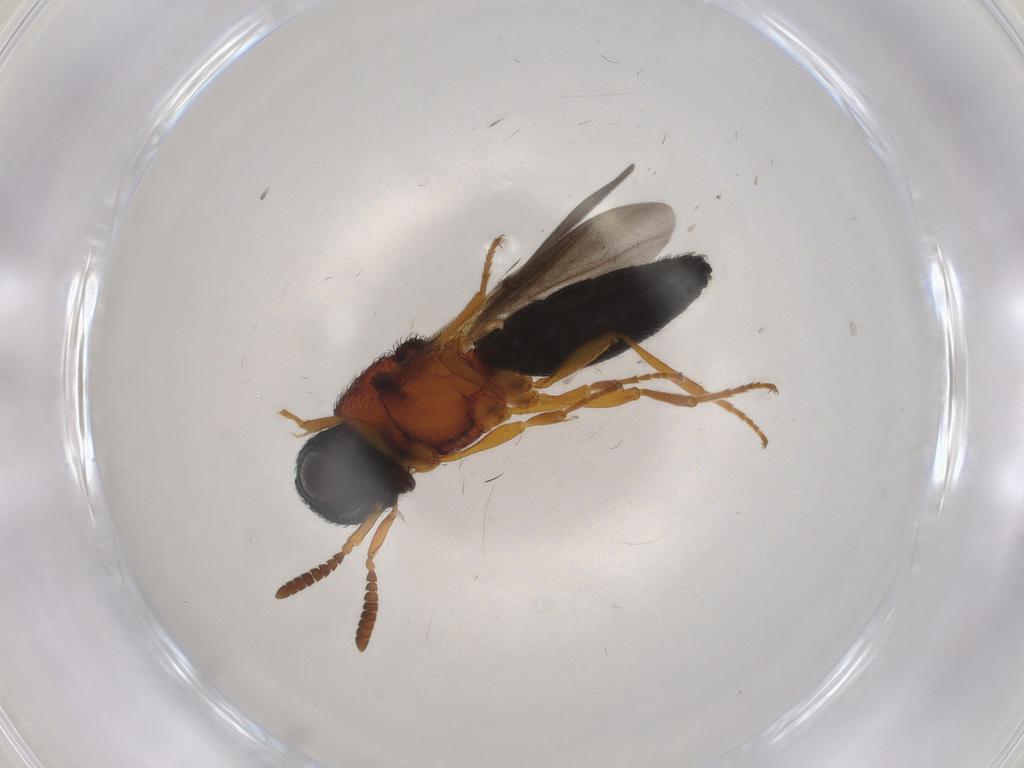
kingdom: Animalia
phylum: Arthropoda
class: Insecta
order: Hymenoptera
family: Scelionidae
